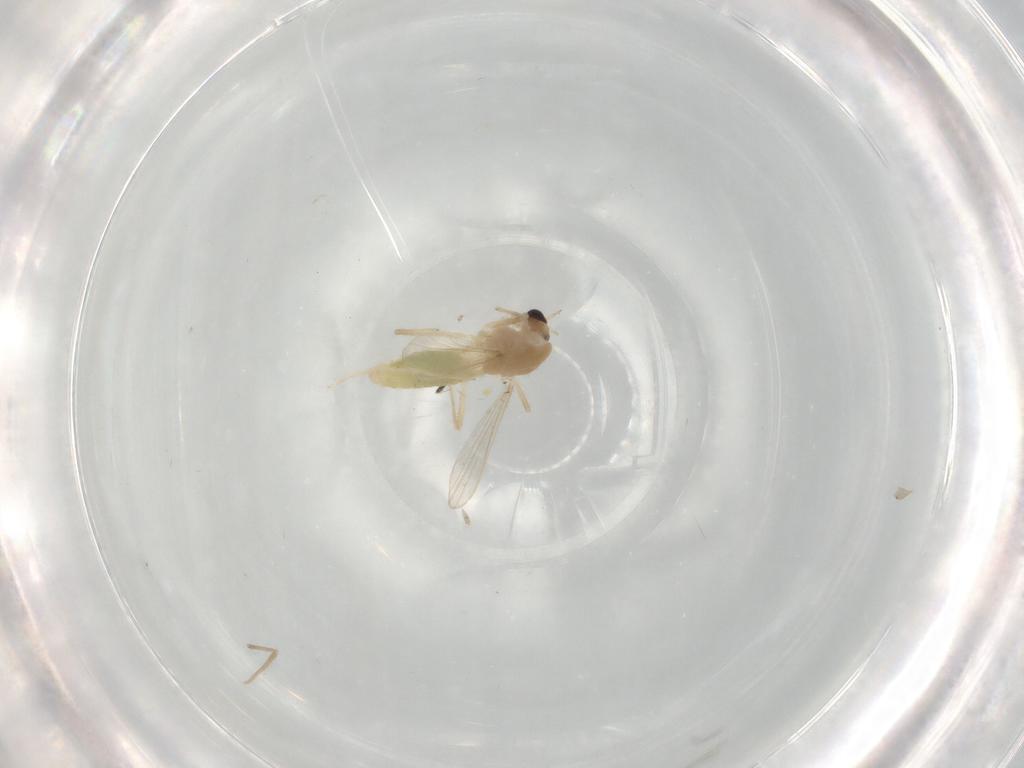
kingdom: Animalia
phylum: Arthropoda
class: Insecta
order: Diptera
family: Chironomidae
